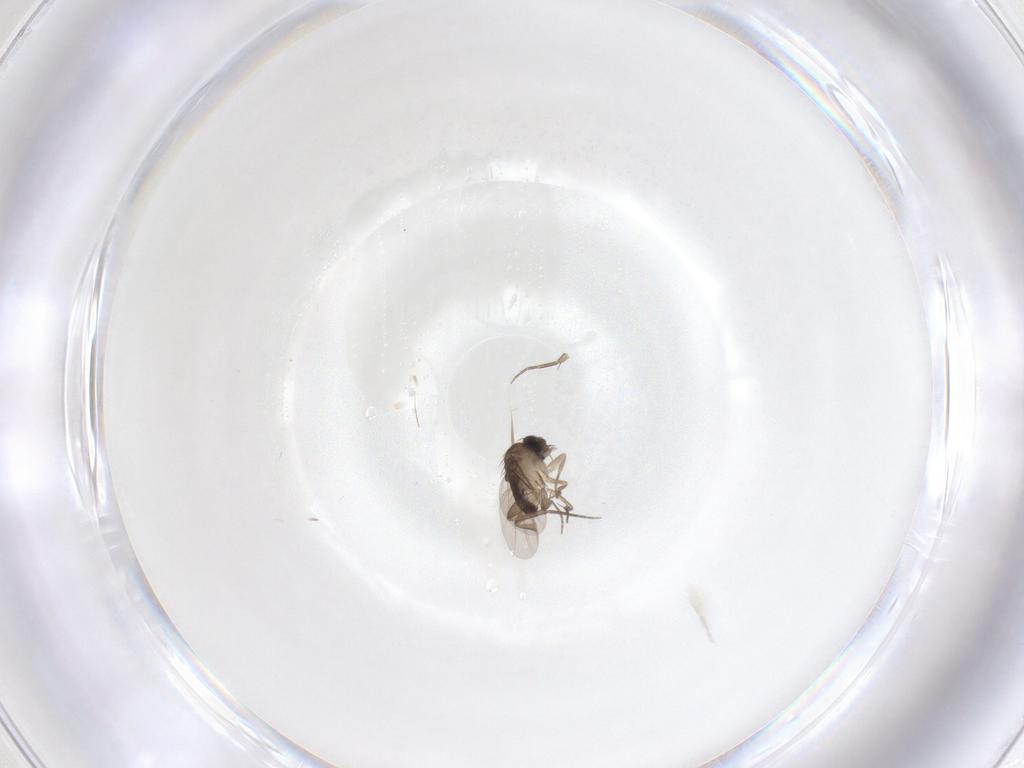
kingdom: Animalia
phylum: Arthropoda
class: Insecta
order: Diptera
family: Phoridae
